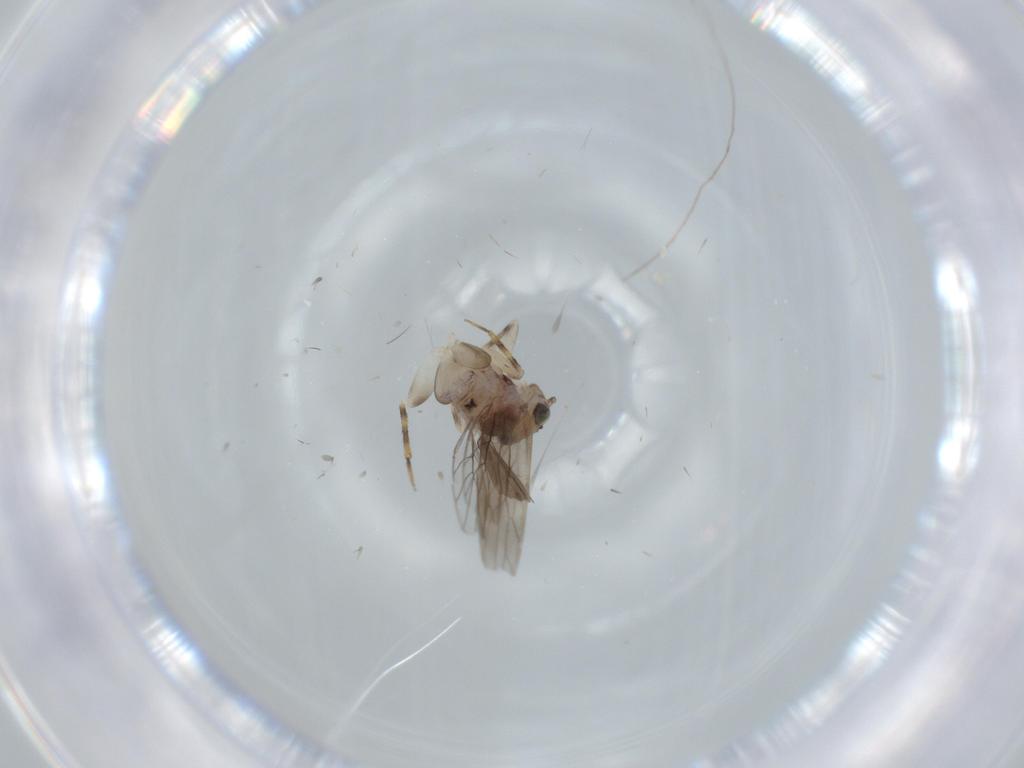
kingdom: Animalia
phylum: Arthropoda
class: Insecta
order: Psocodea
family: Lepidopsocidae
